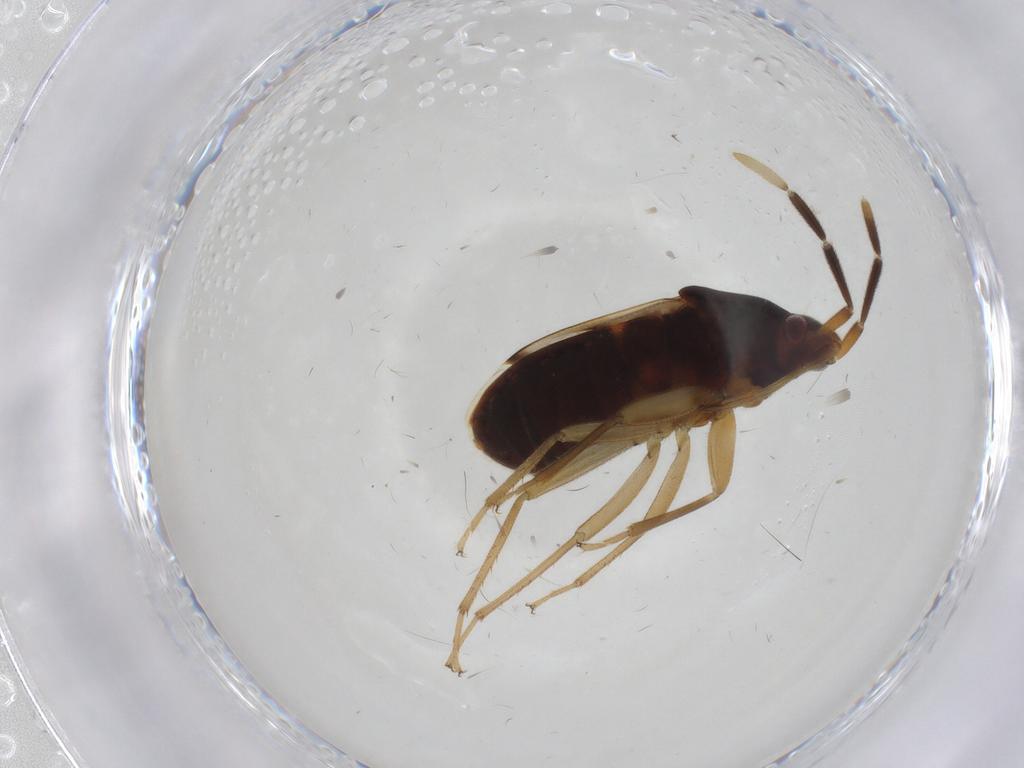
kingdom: Animalia
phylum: Arthropoda
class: Insecta
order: Hemiptera
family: Rhyparochromidae
